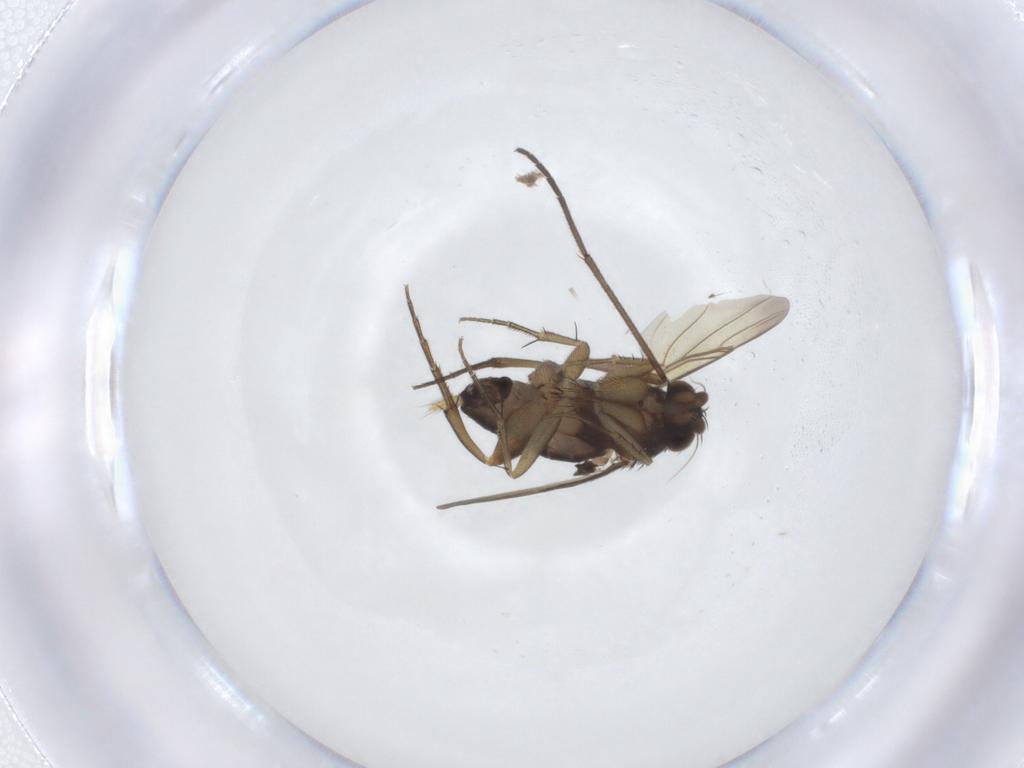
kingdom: Animalia
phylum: Arthropoda
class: Insecta
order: Diptera
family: Phoridae
